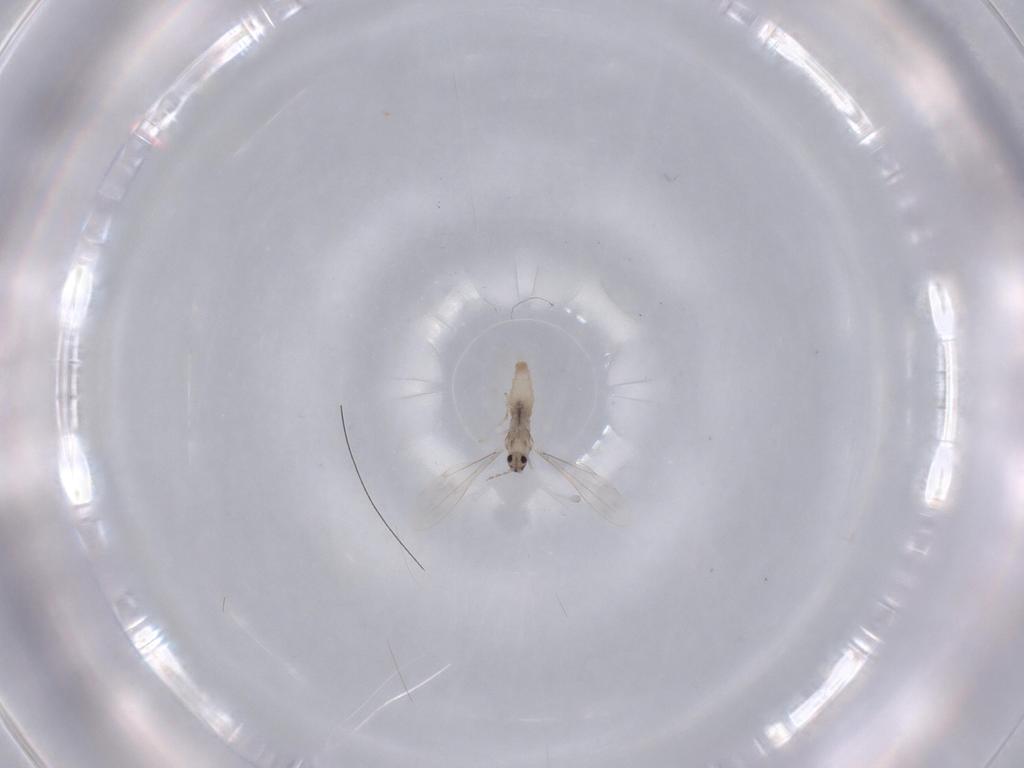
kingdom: Animalia
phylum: Arthropoda
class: Insecta
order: Diptera
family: Cecidomyiidae
